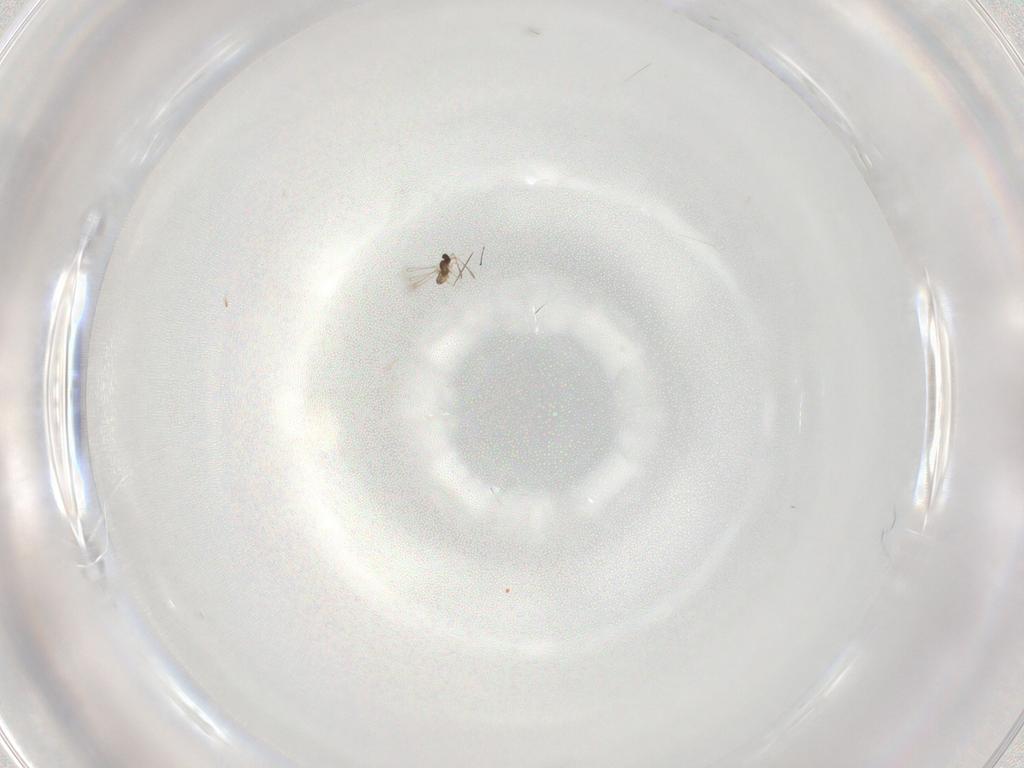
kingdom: Animalia
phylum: Arthropoda
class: Insecta
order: Hymenoptera
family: Mymaridae
